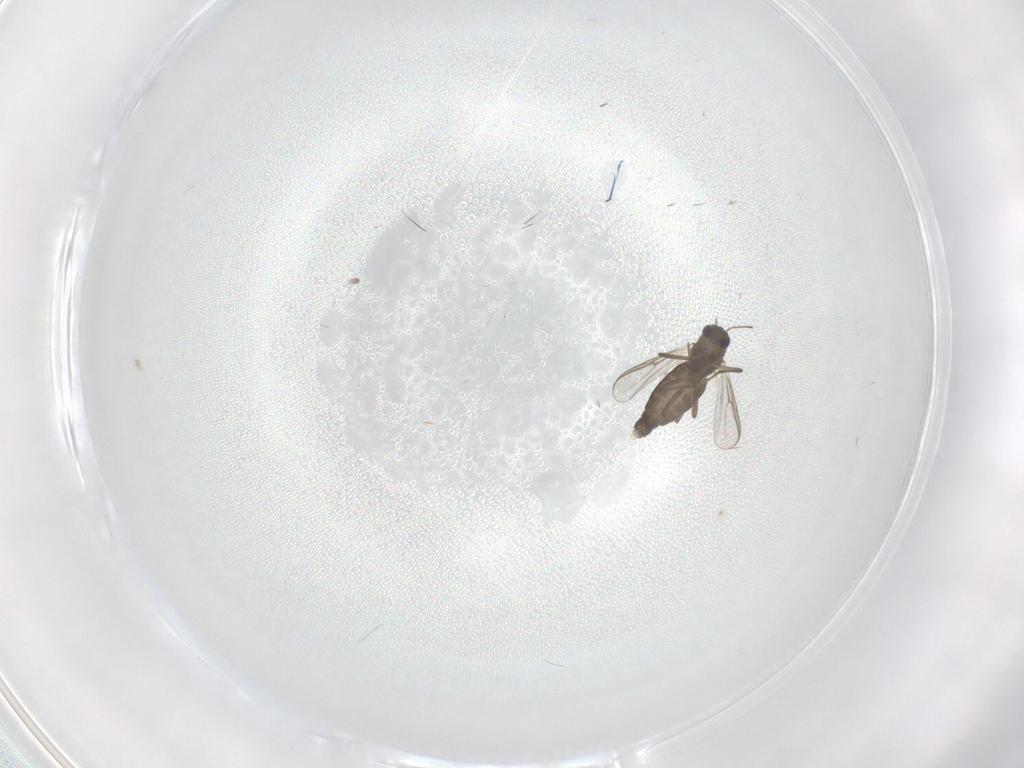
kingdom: Animalia
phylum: Arthropoda
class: Insecta
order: Diptera
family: Chironomidae
